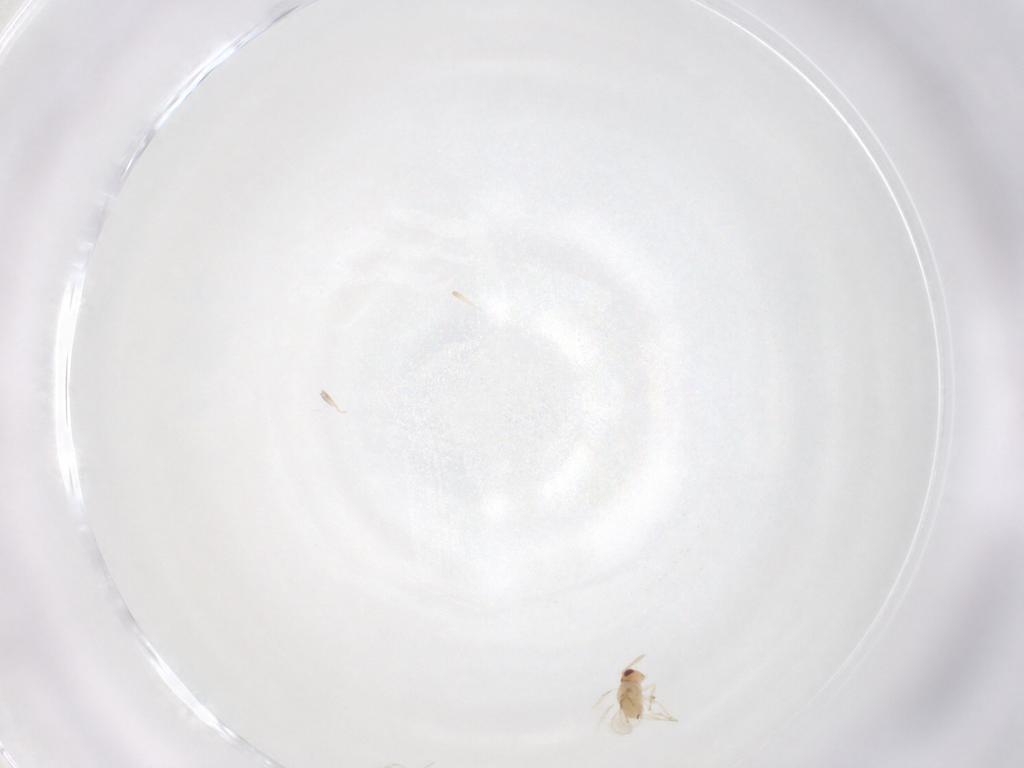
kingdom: Animalia
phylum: Arthropoda
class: Insecta
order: Hymenoptera
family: Aphelinidae
